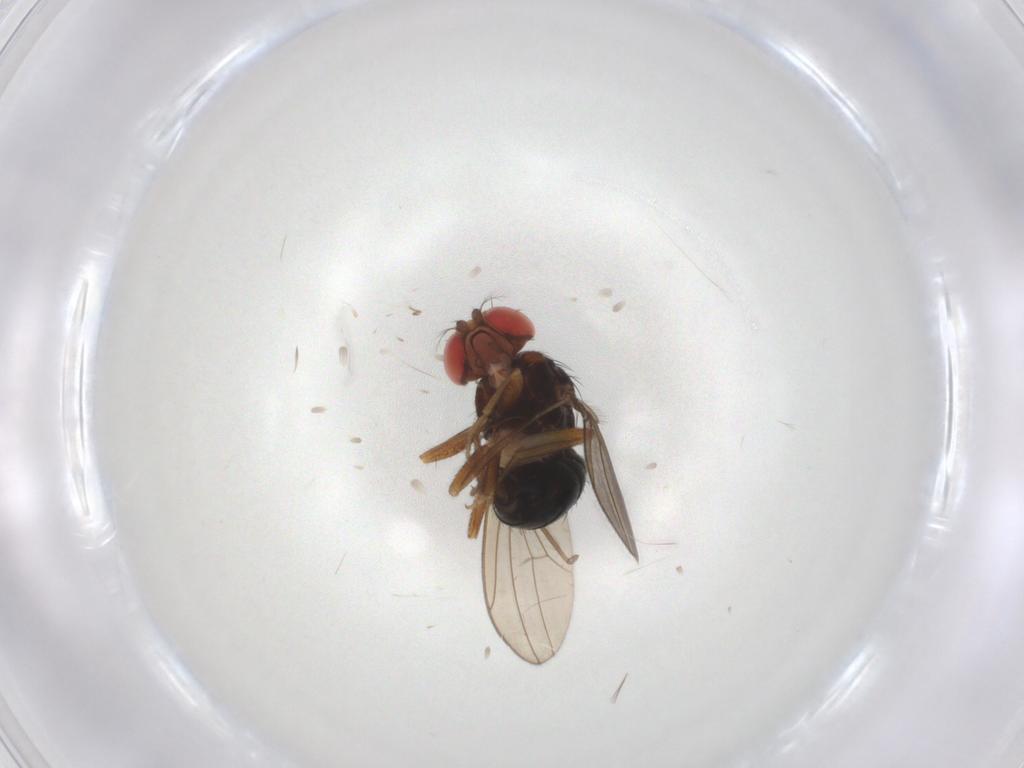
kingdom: Animalia
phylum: Arthropoda
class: Insecta
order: Diptera
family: Drosophilidae
